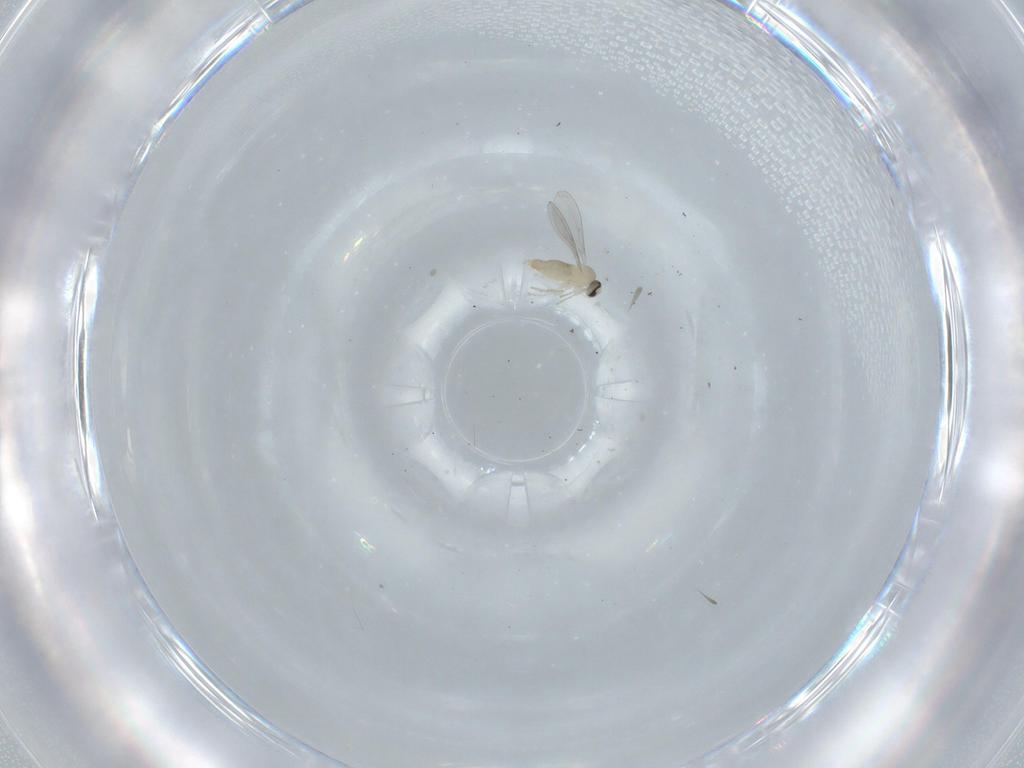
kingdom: Animalia
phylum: Arthropoda
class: Insecta
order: Diptera
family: Cecidomyiidae
